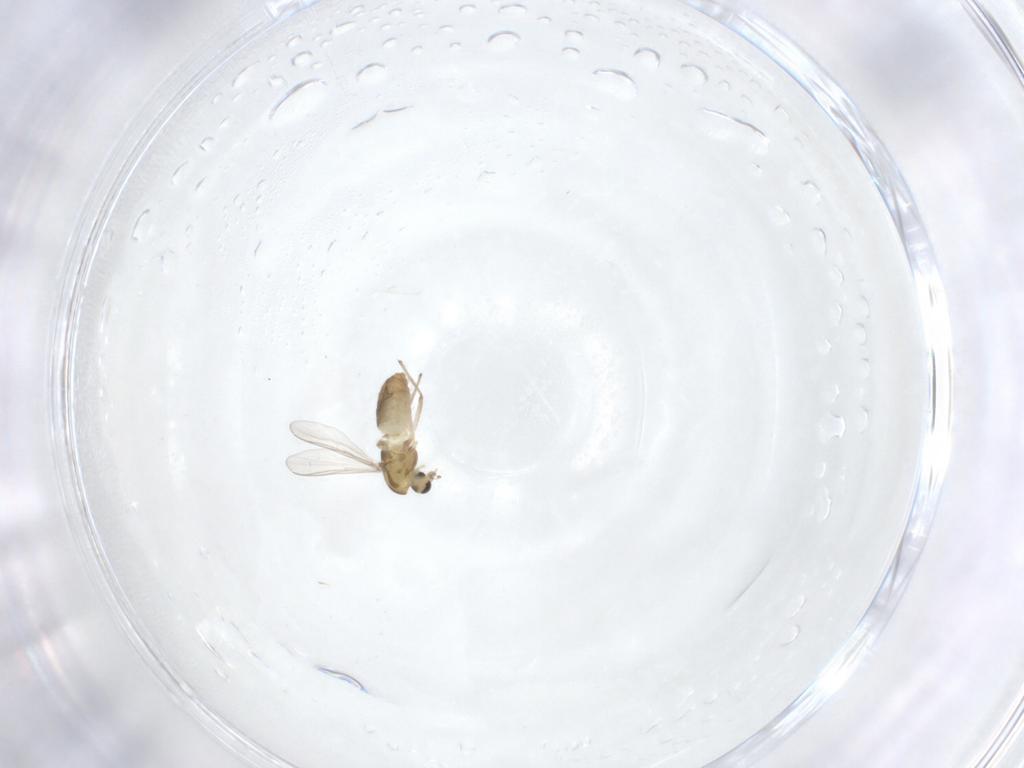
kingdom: Animalia
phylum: Arthropoda
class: Insecta
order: Diptera
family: Chironomidae
